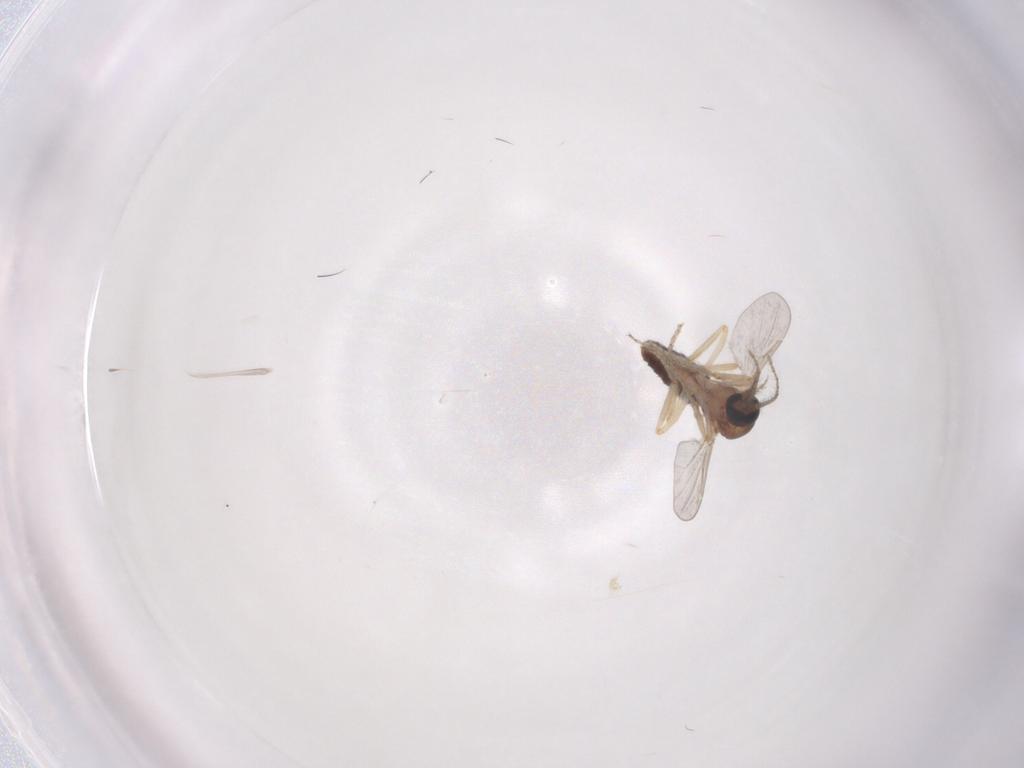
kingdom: Animalia
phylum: Arthropoda
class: Insecta
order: Diptera
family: Ceratopogonidae
